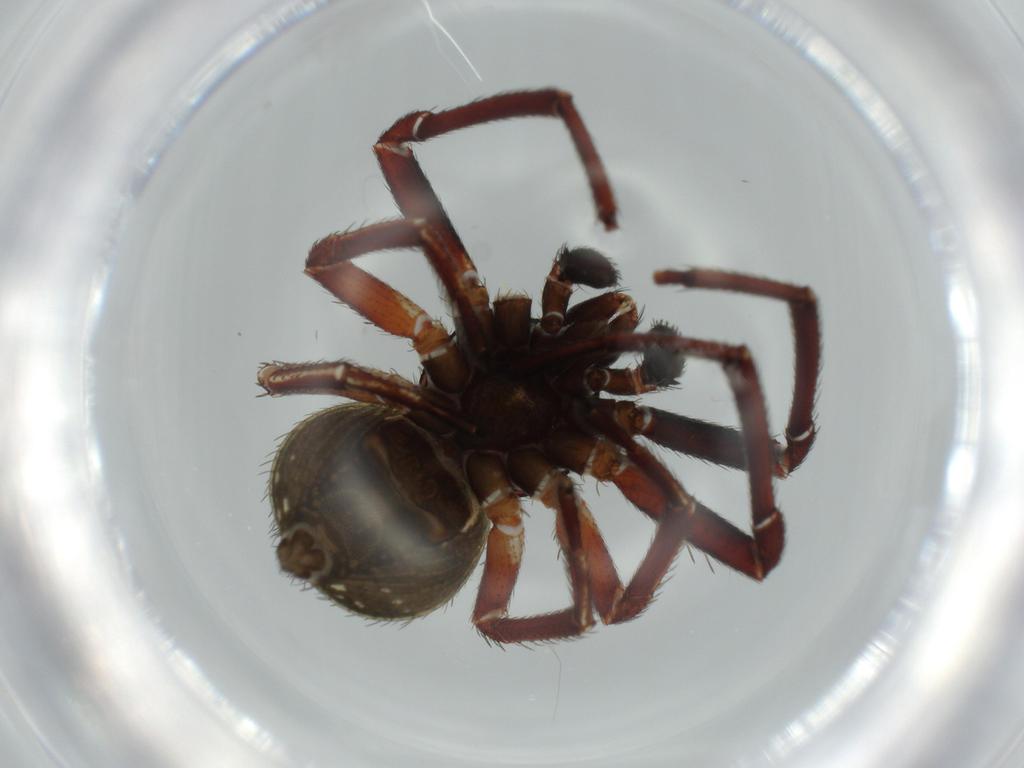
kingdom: Animalia
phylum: Arthropoda
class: Arachnida
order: Araneae
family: Thomisidae
